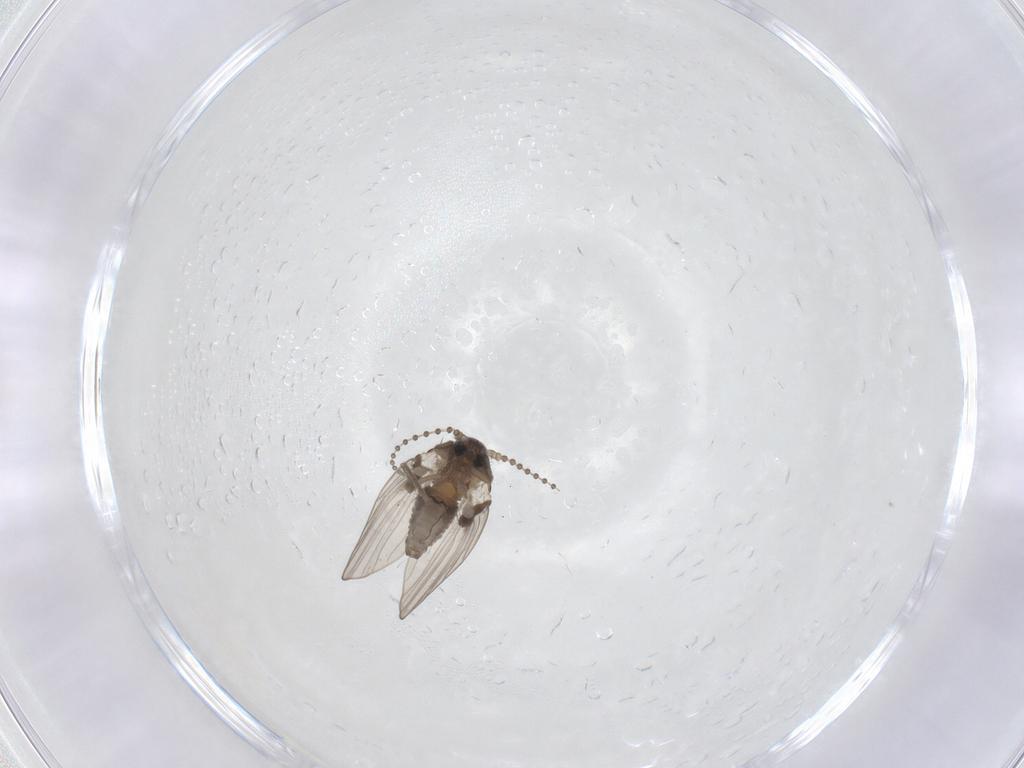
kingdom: Animalia
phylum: Arthropoda
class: Insecta
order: Diptera
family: Psychodidae
